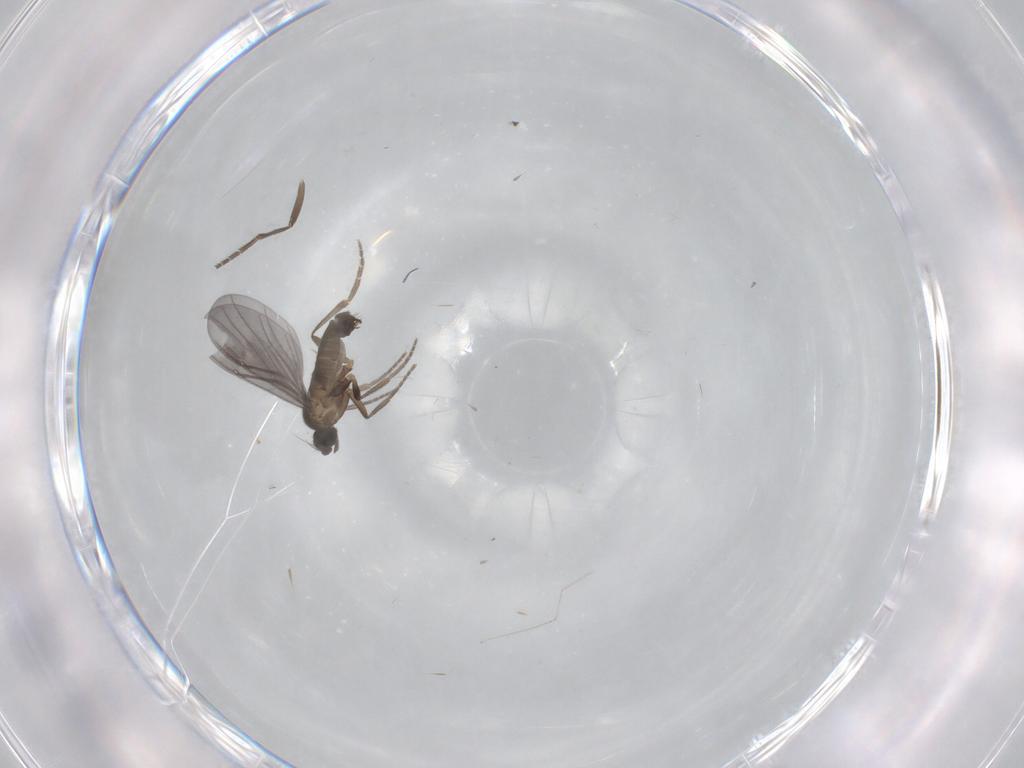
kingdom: Animalia
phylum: Arthropoda
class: Insecta
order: Diptera
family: Phoridae
